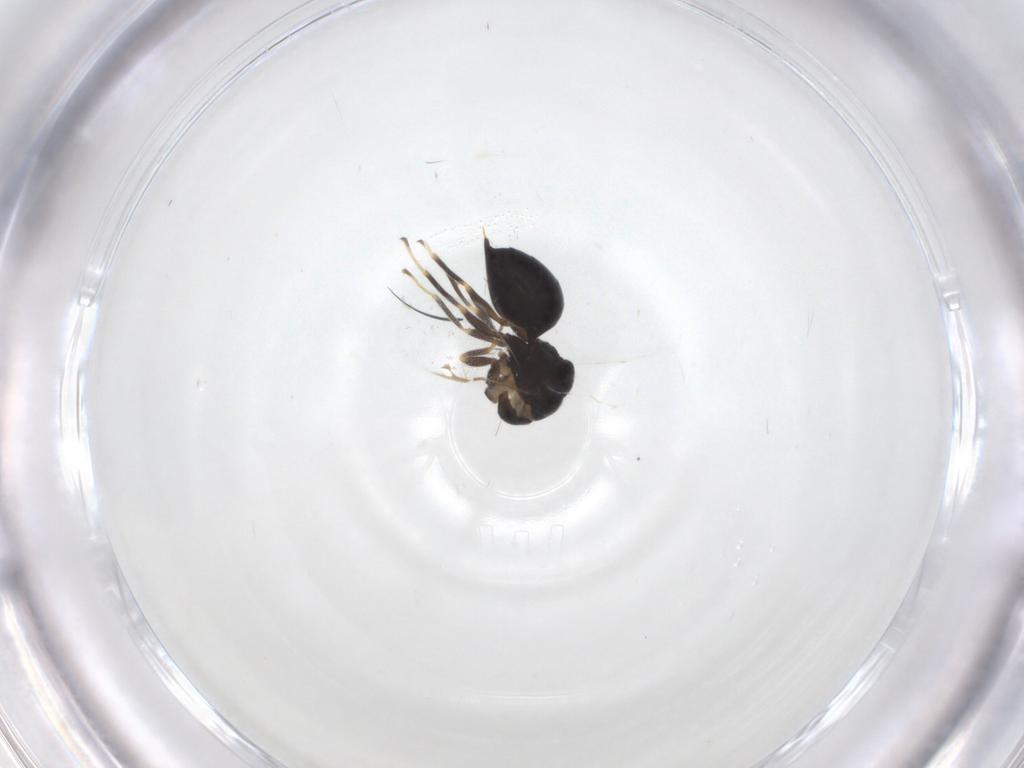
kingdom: Animalia
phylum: Arthropoda
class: Insecta
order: Hymenoptera
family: Eurytomidae
